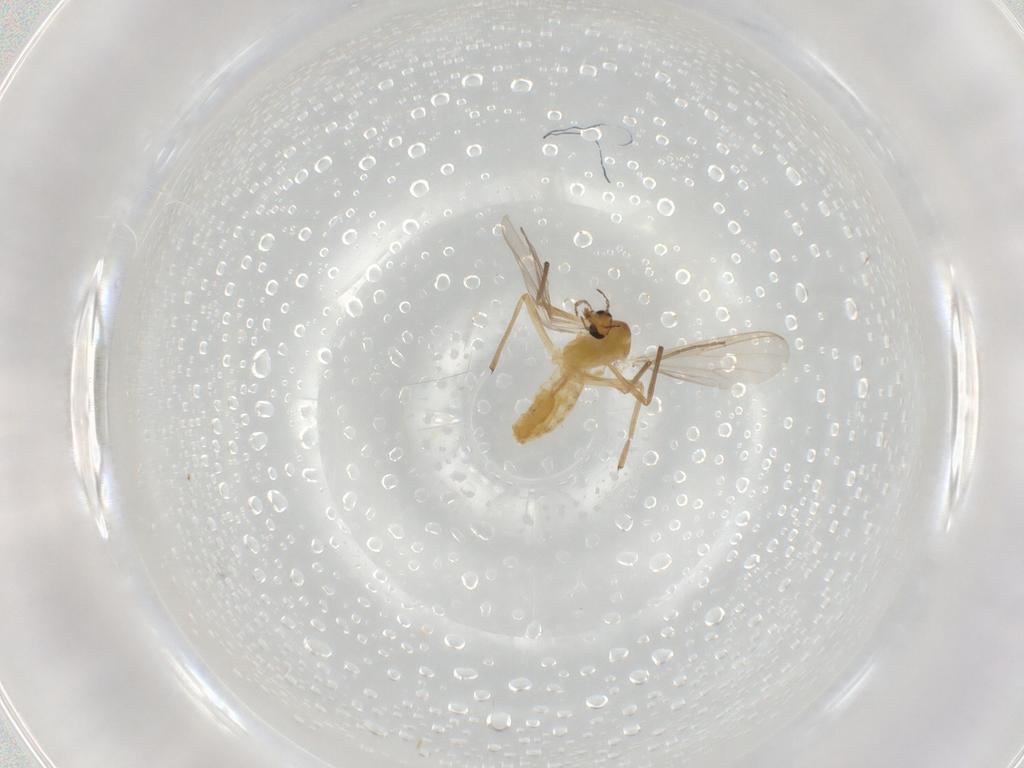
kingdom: Animalia
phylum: Arthropoda
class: Insecta
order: Diptera
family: Chironomidae
